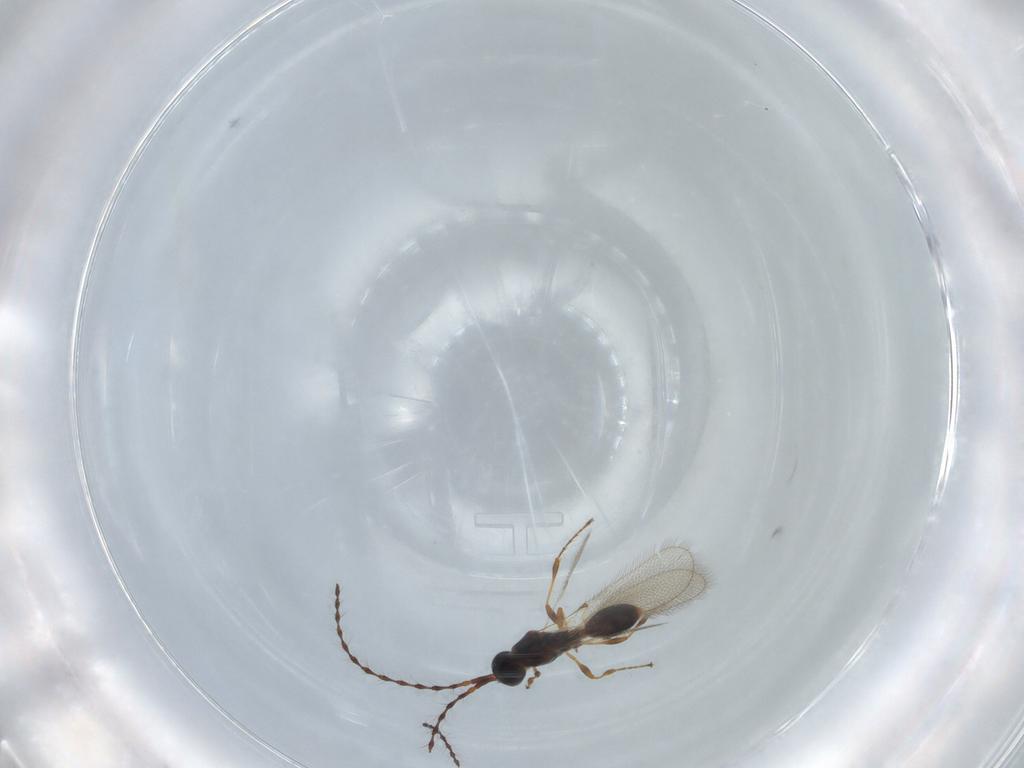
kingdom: Animalia
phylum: Arthropoda
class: Insecta
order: Hymenoptera
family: Diapriidae
